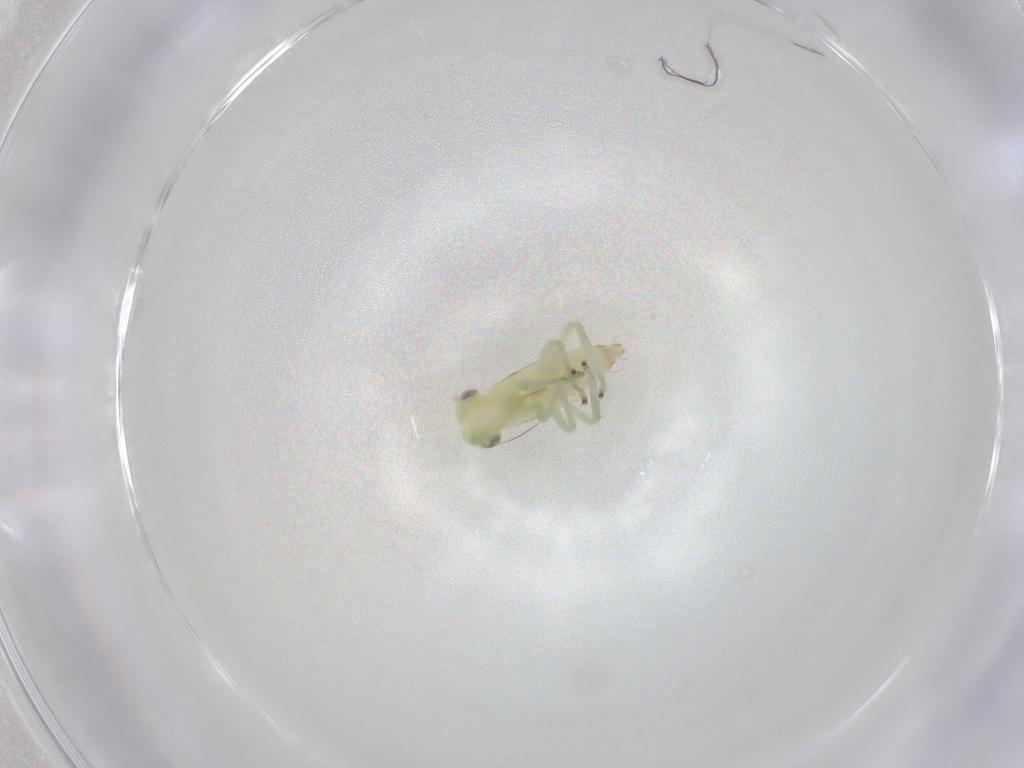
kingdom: Animalia
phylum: Arthropoda
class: Insecta
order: Hemiptera
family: Cicadellidae
